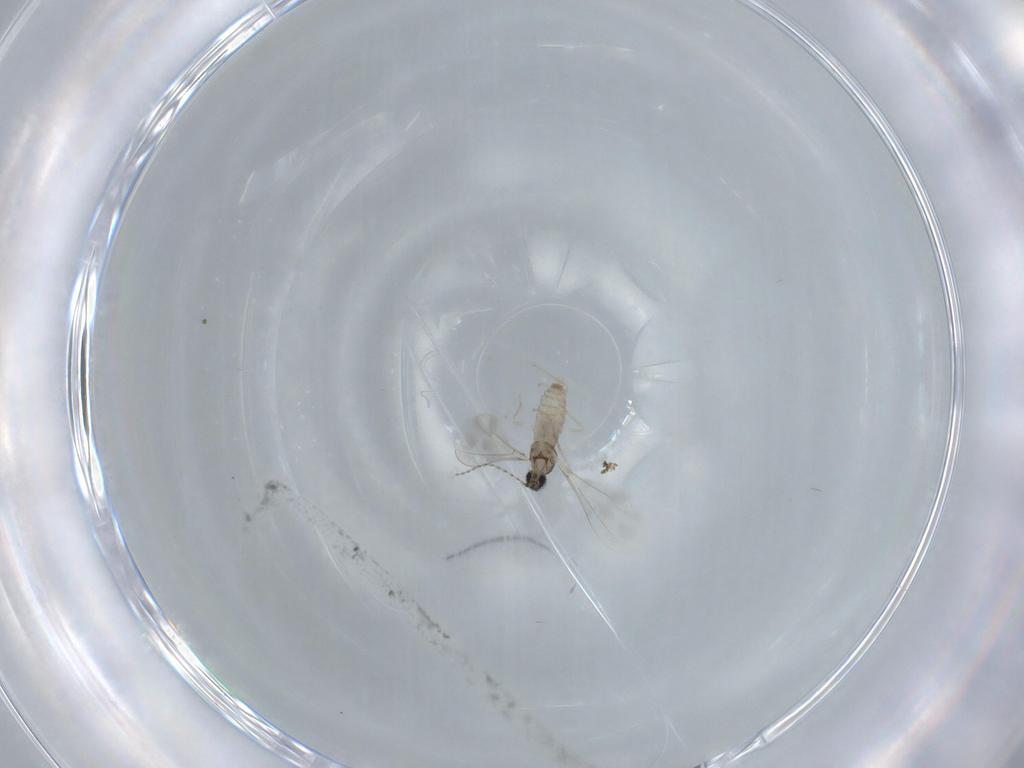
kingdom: Animalia
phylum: Arthropoda
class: Insecta
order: Diptera
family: Cecidomyiidae
